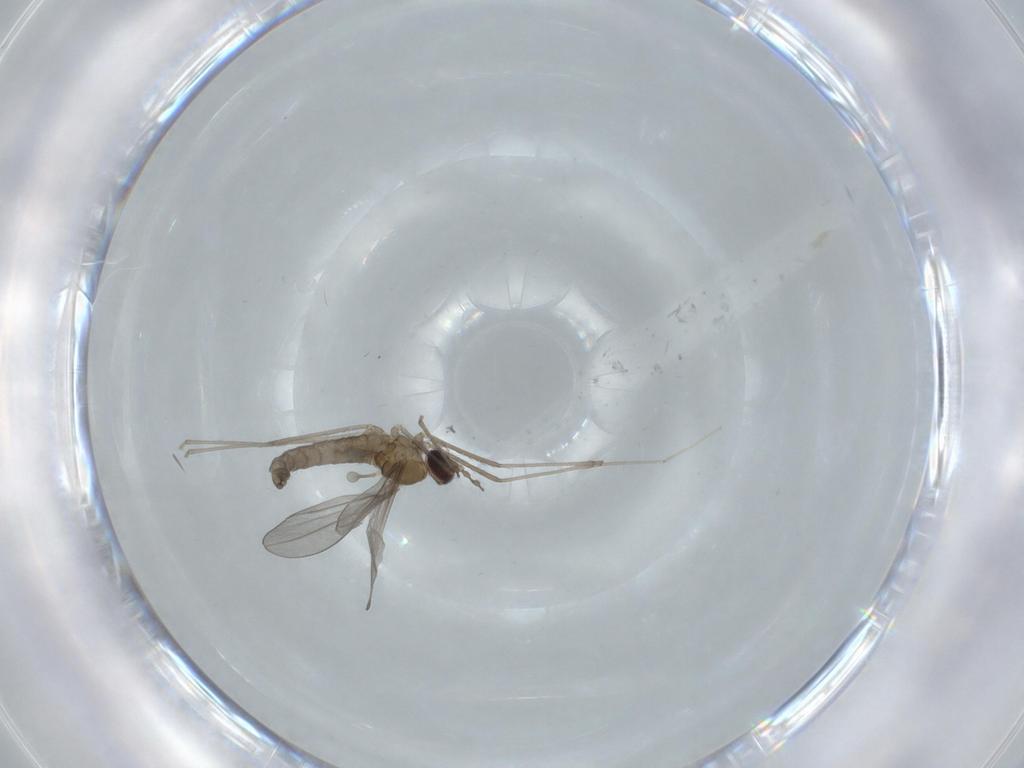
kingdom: Animalia
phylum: Arthropoda
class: Insecta
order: Diptera
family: Cecidomyiidae
